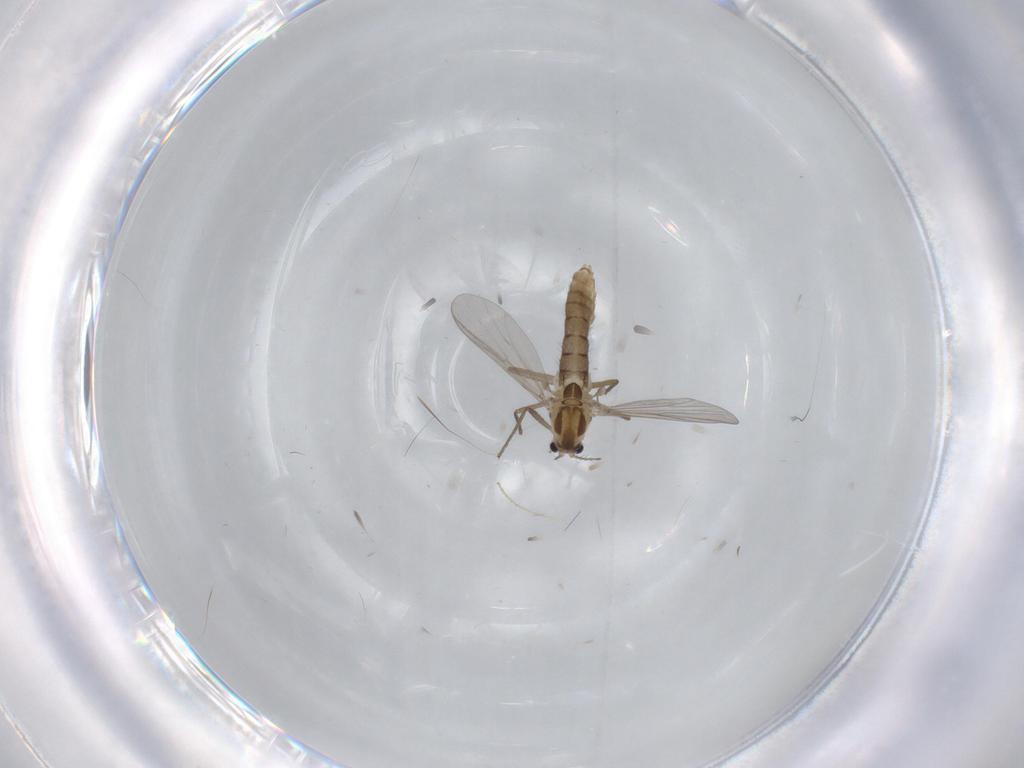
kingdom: Animalia
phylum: Arthropoda
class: Insecta
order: Diptera
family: Chironomidae
